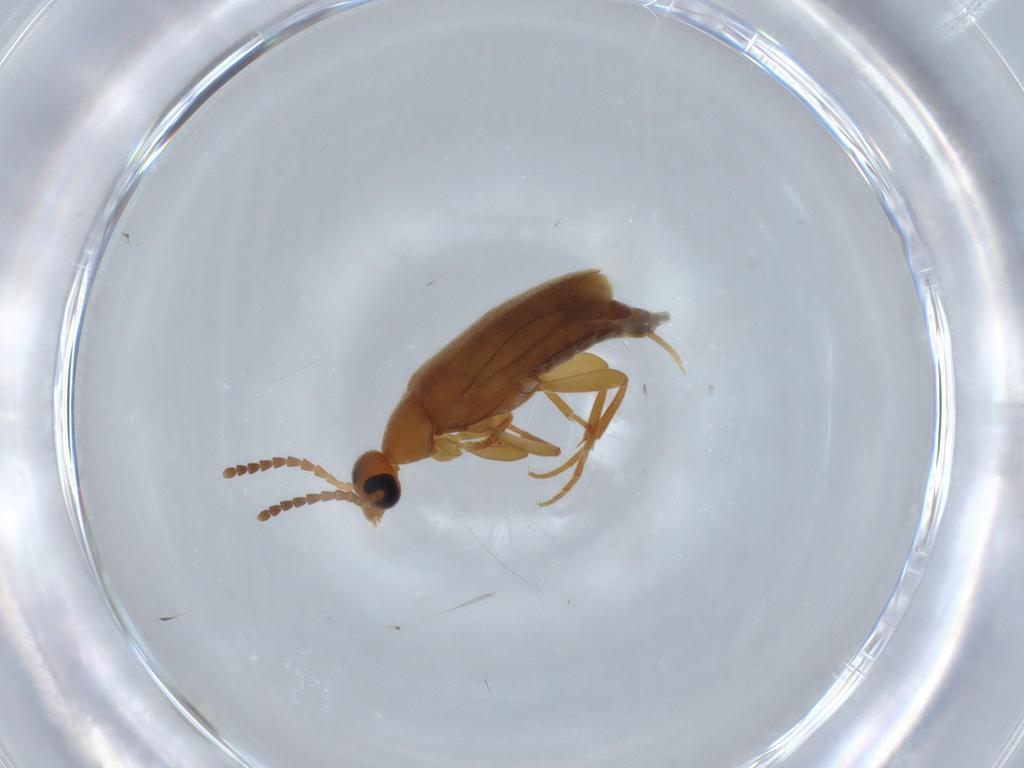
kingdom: Animalia
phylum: Arthropoda
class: Insecta
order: Coleoptera
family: Scraptiidae
